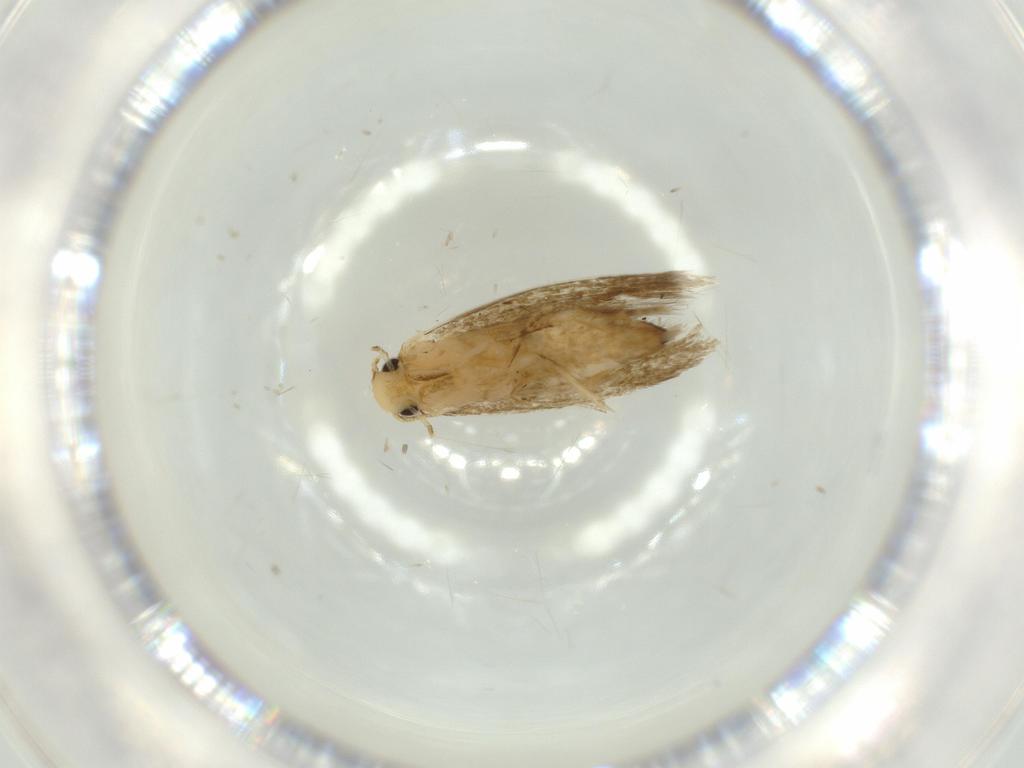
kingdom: Animalia
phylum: Arthropoda
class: Insecta
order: Lepidoptera
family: Tineidae
